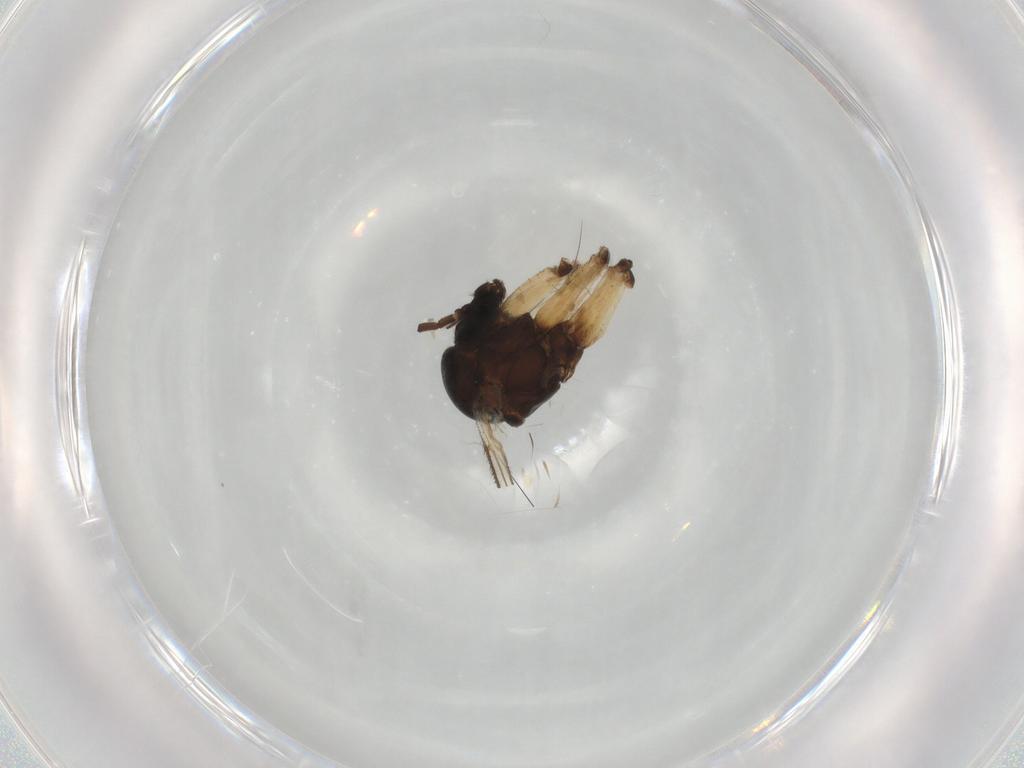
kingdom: Animalia
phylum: Arthropoda
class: Insecta
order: Diptera
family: Mycetophilidae
